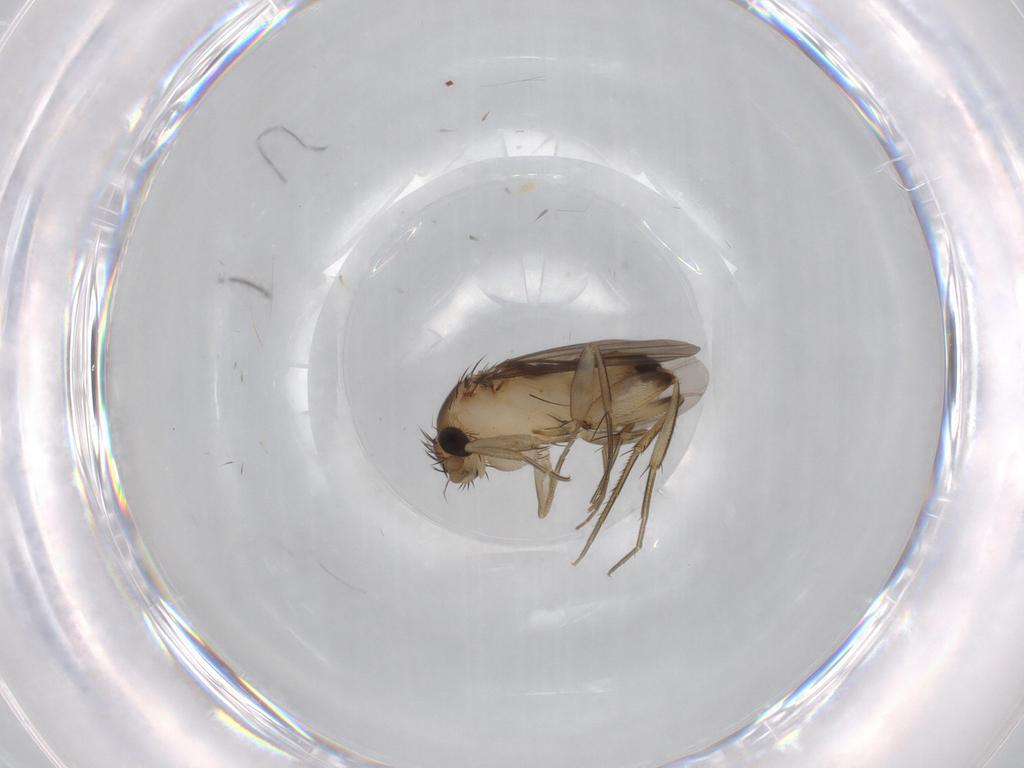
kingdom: Animalia
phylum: Arthropoda
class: Insecta
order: Diptera
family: Phoridae
